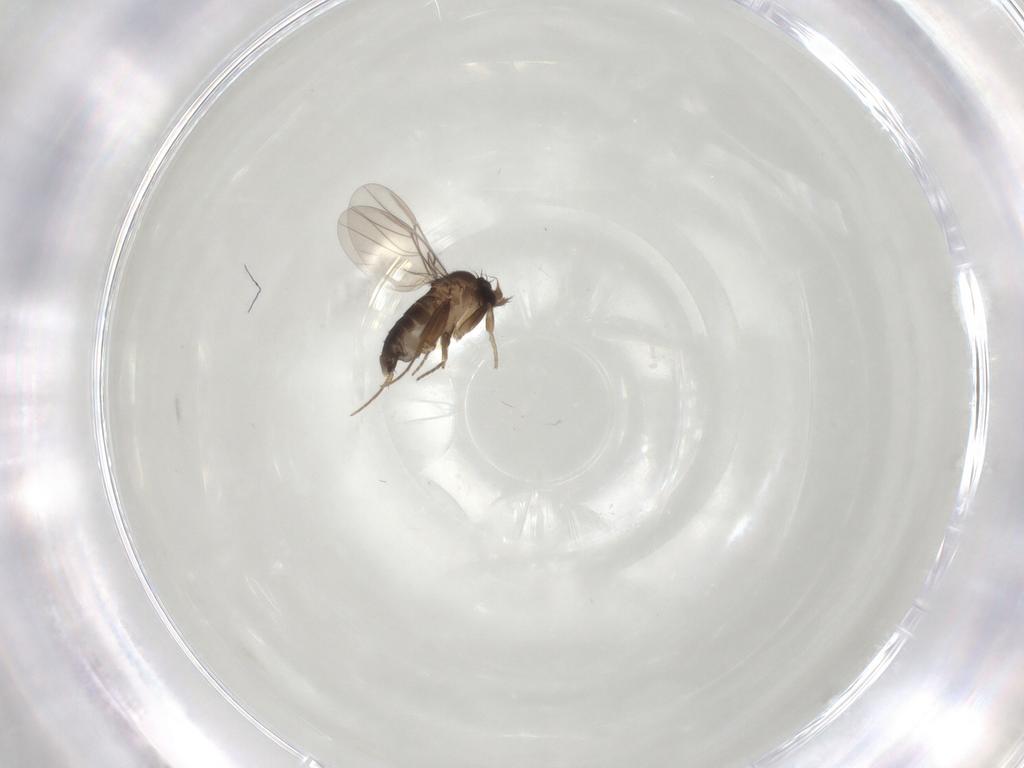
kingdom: Animalia
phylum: Arthropoda
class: Insecta
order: Diptera
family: Phoridae
